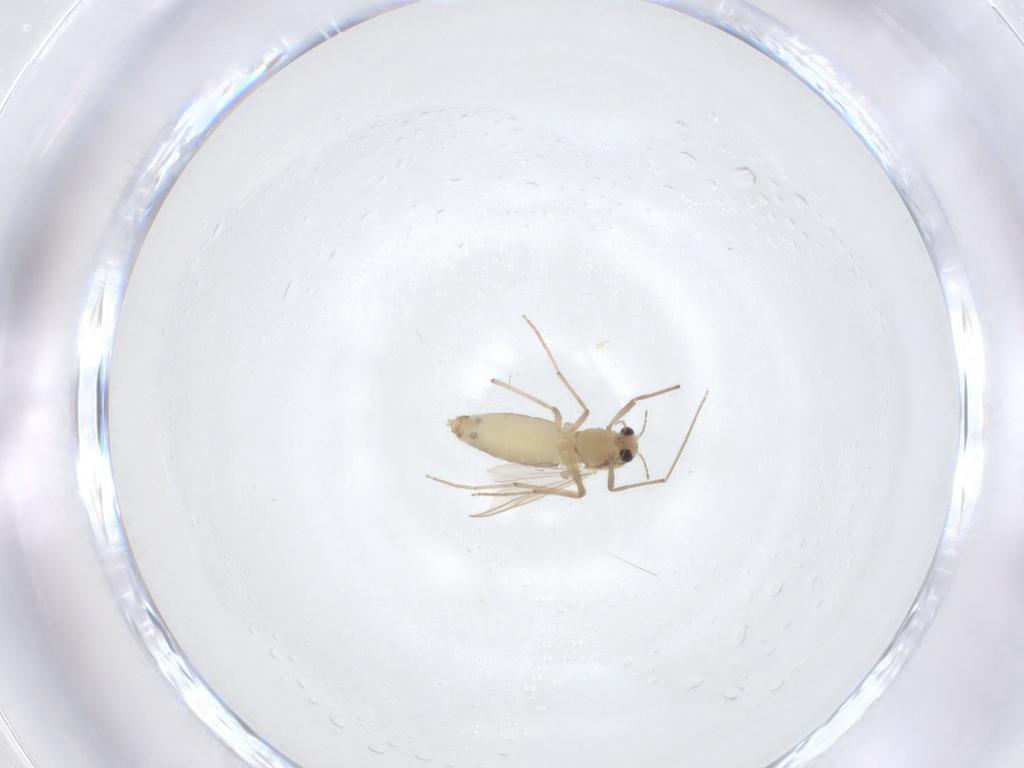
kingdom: Animalia
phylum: Arthropoda
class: Insecta
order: Diptera
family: Chironomidae
